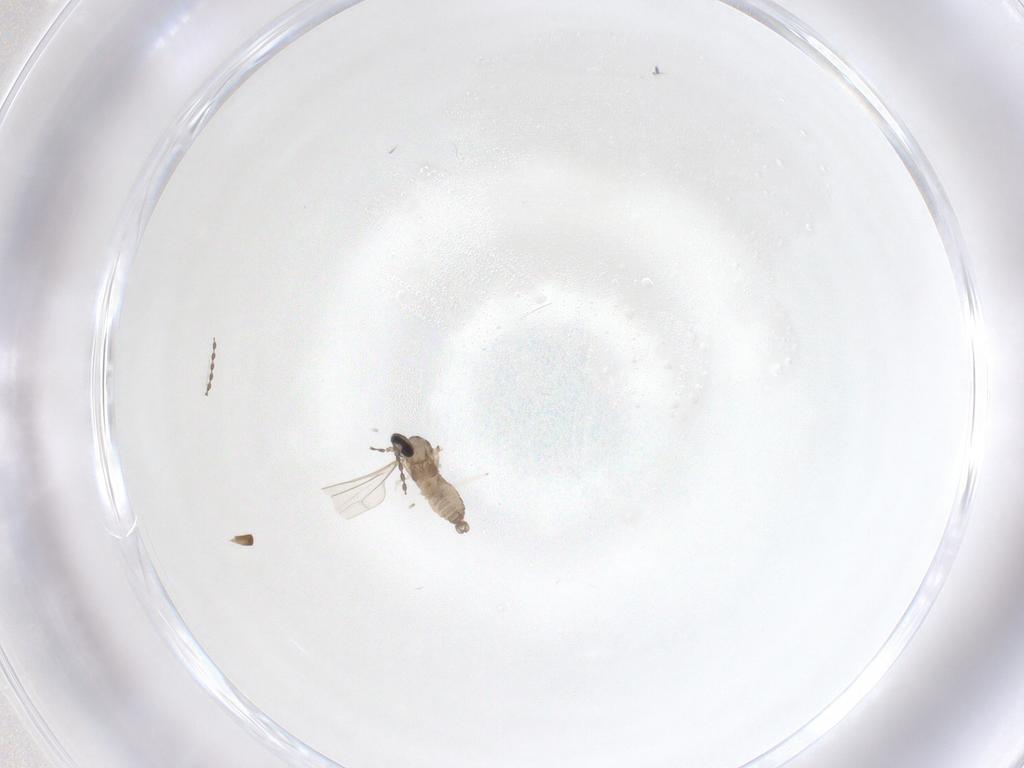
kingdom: Animalia
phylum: Arthropoda
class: Insecta
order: Diptera
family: Cecidomyiidae
